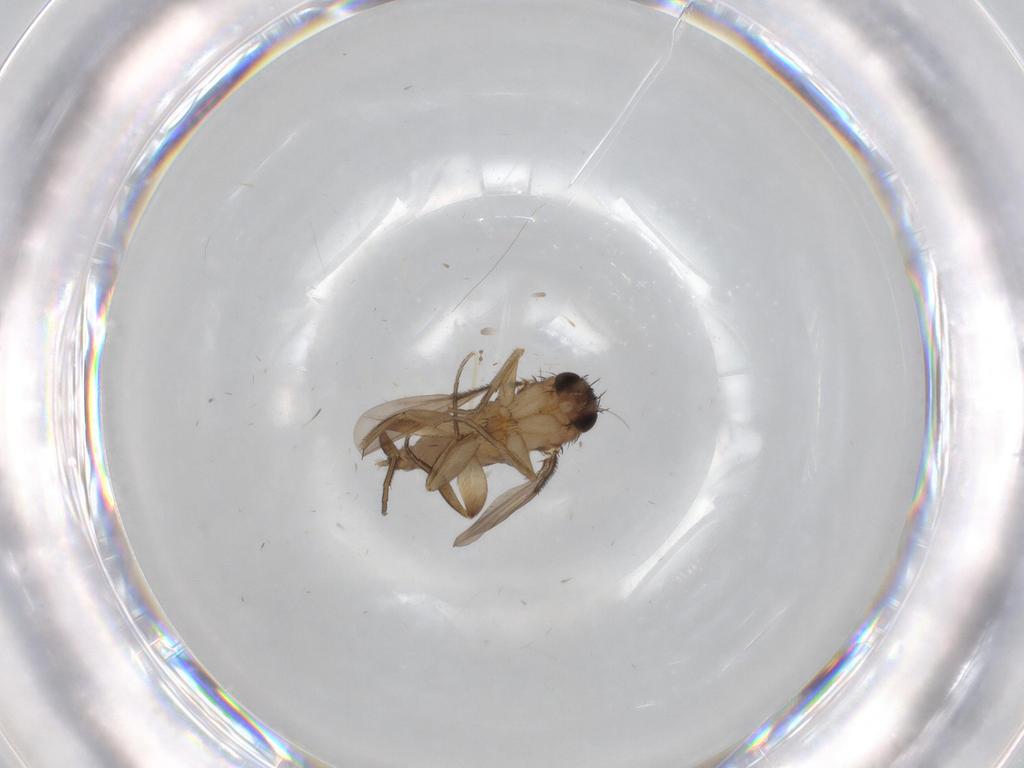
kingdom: Animalia
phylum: Arthropoda
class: Insecta
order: Diptera
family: Phoridae
